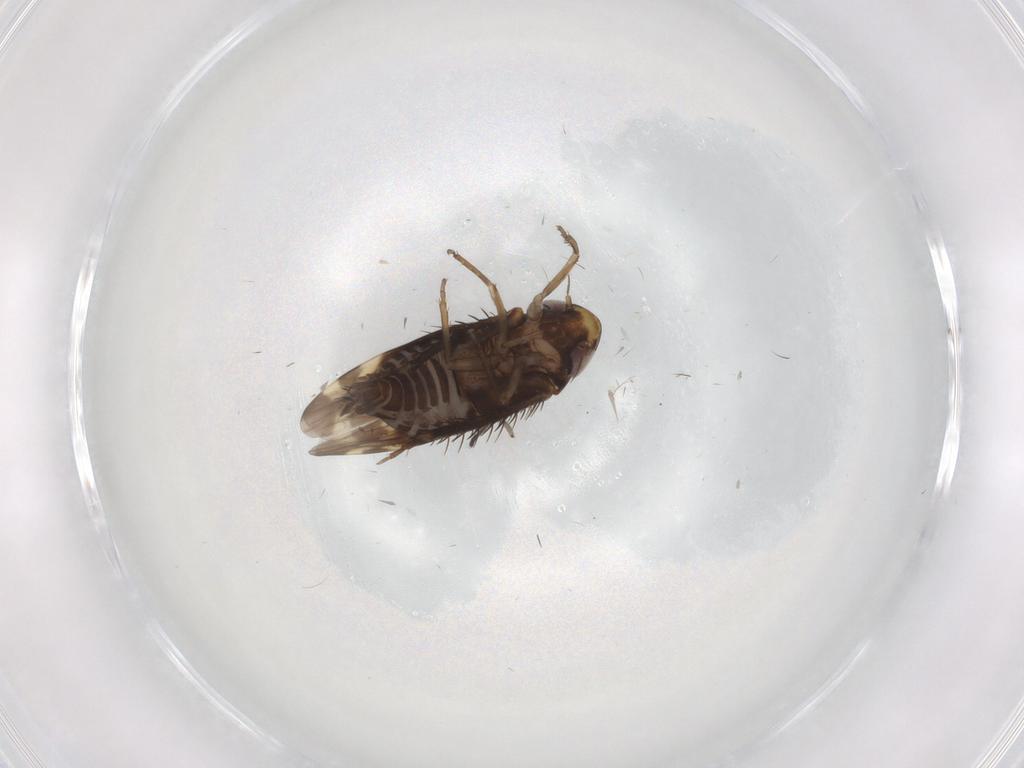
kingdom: Animalia
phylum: Arthropoda
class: Insecta
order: Hemiptera
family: Cicadellidae
